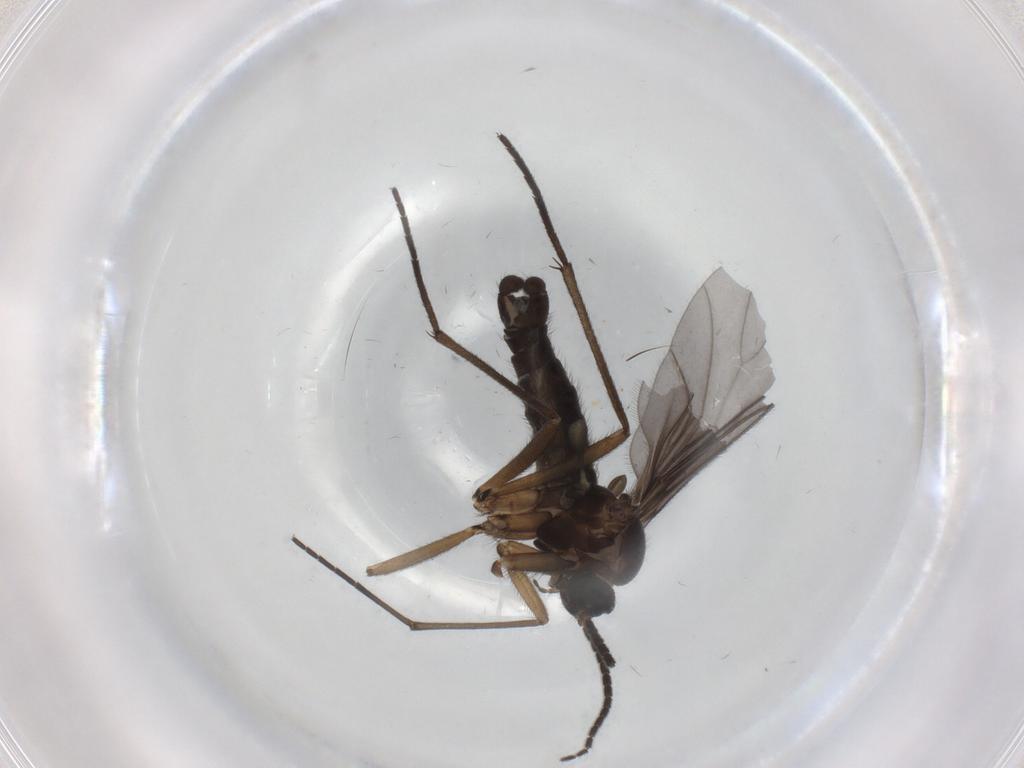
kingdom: Animalia
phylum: Arthropoda
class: Insecta
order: Diptera
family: Sciaridae
